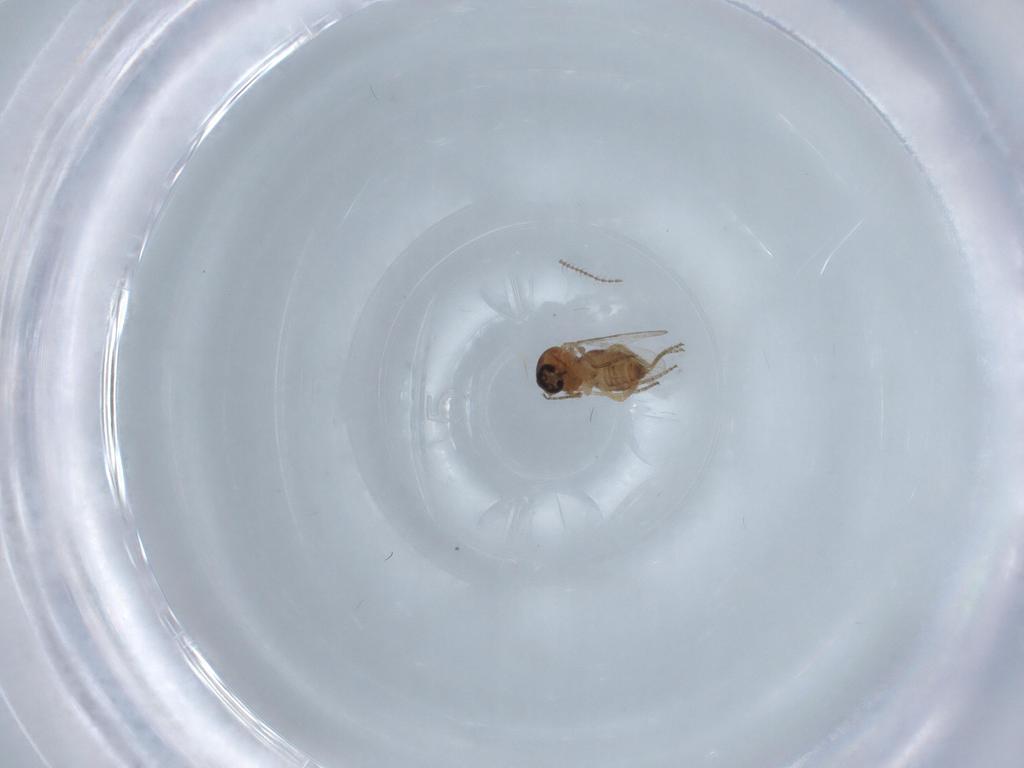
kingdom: Animalia
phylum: Arthropoda
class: Insecta
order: Diptera
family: Ceratopogonidae
